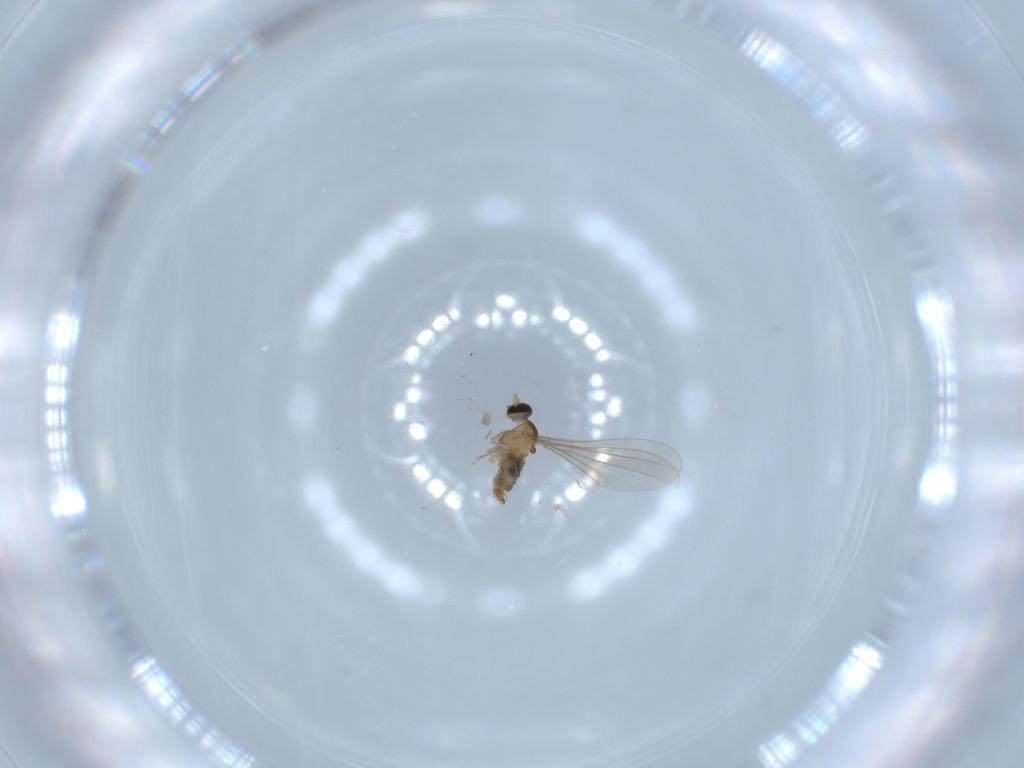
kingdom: Animalia
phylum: Arthropoda
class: Insecta
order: Diptera
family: Cecidomyiidae
